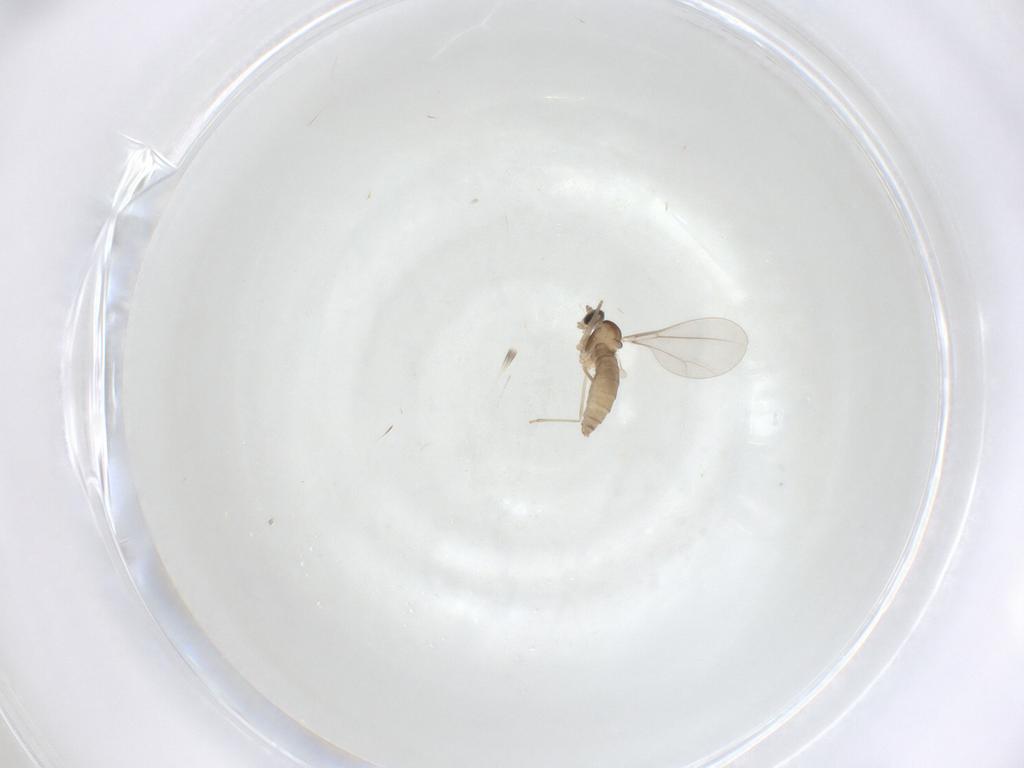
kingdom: Animalia
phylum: Arthropoda
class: Insecta
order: Diptera
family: Cecidomyiidae
